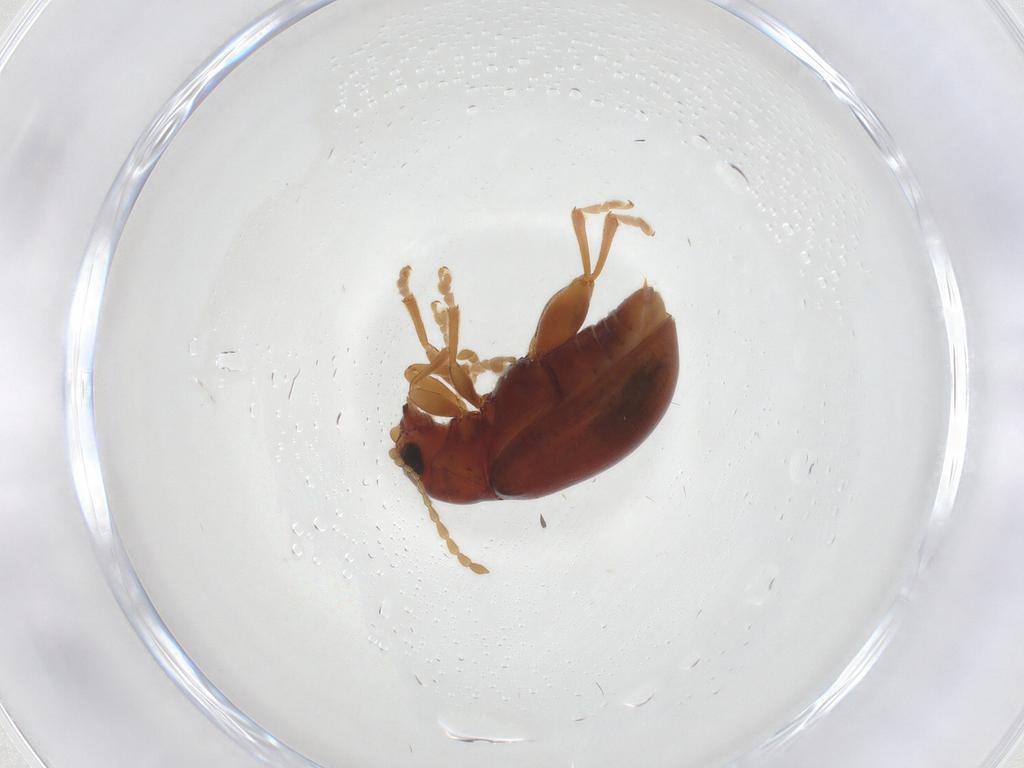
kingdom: Animalia
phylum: Arthropoda
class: Insecta
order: Coleoptera
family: Chrysomelidae
